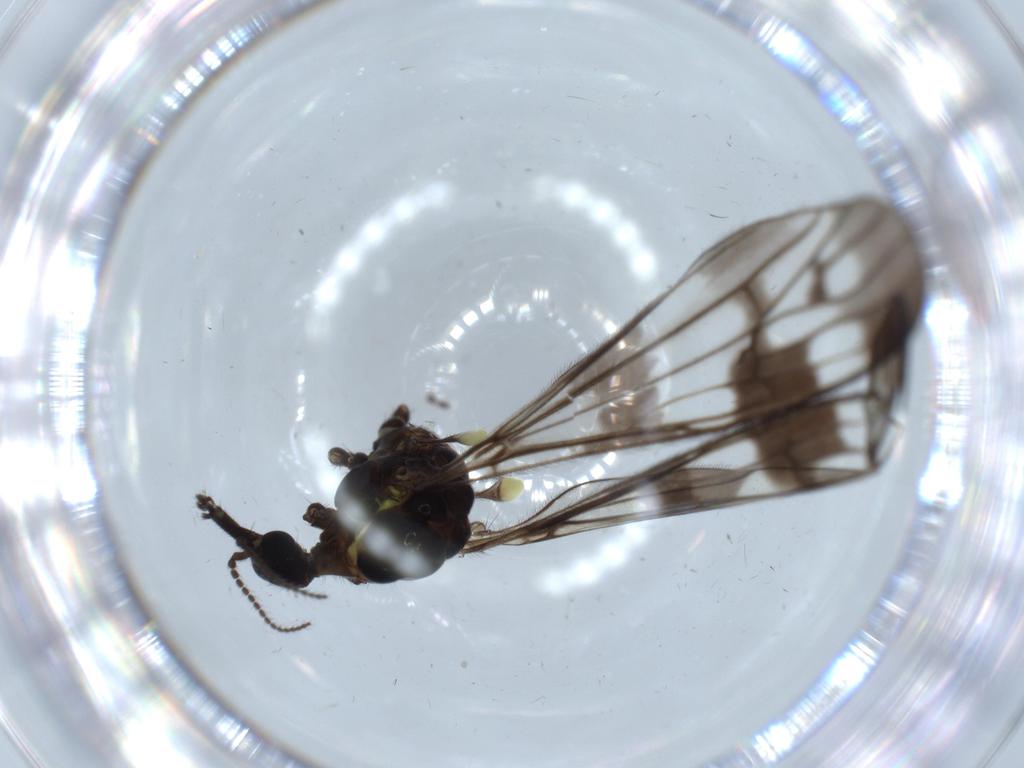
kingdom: Animalia
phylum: Arthropoda
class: Insecta
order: Diptera
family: Limoniidae
